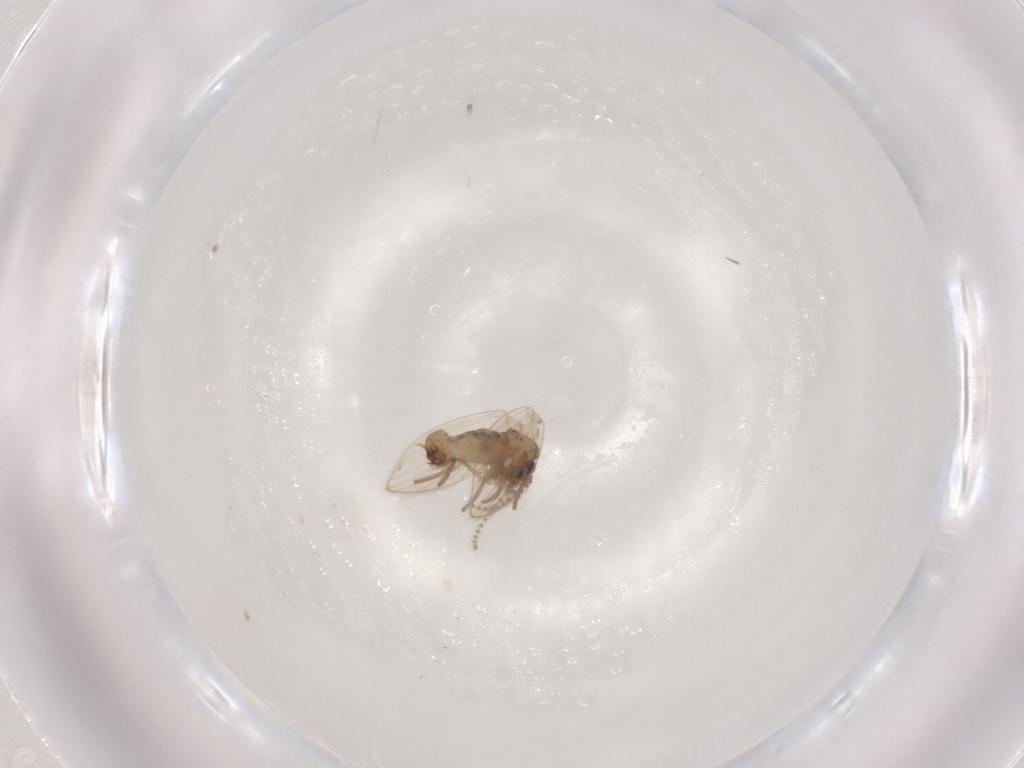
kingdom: Animalia
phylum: Arthropoda
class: Insecta
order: Diptera
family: Psychodidae
